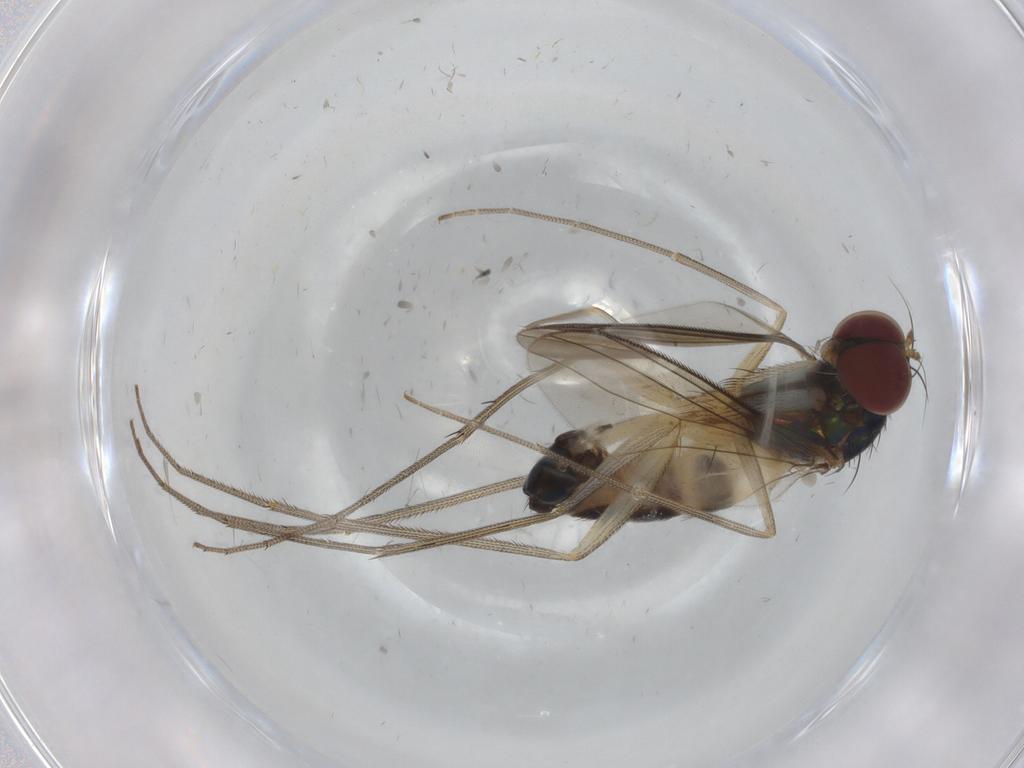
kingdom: Animalia
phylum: Arthropoda
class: Insecta
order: Diptera
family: Dolichopodidae
